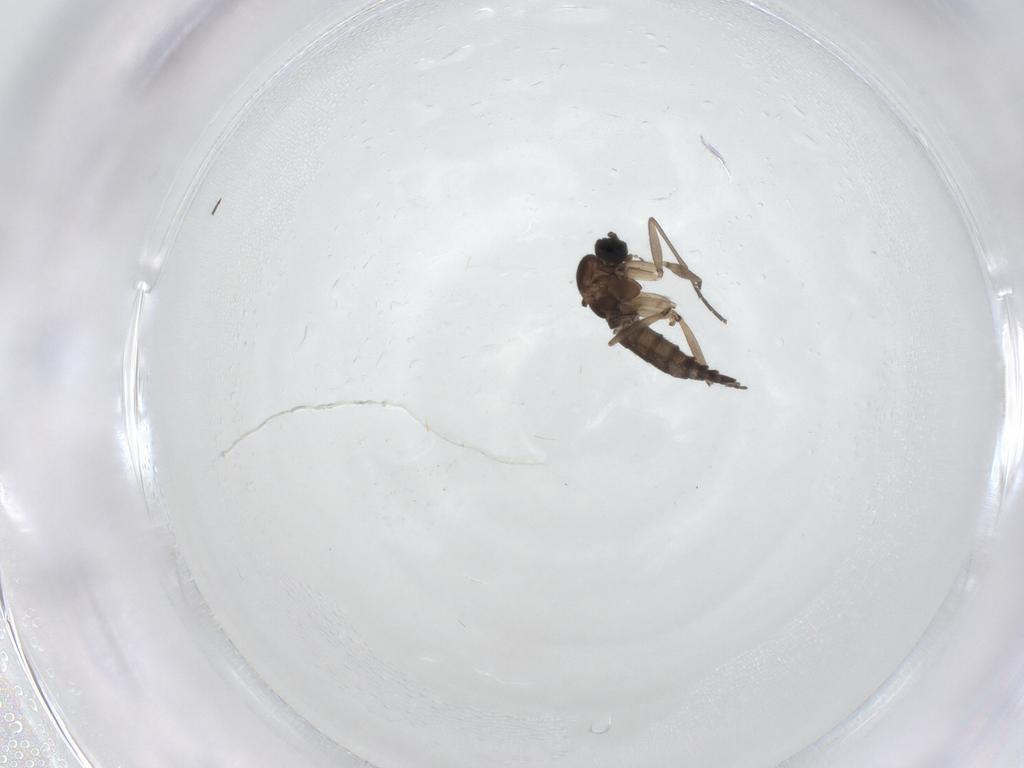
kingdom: Animalia
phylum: Arthropoda
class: Insecta
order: Diptera
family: Sciaridae
